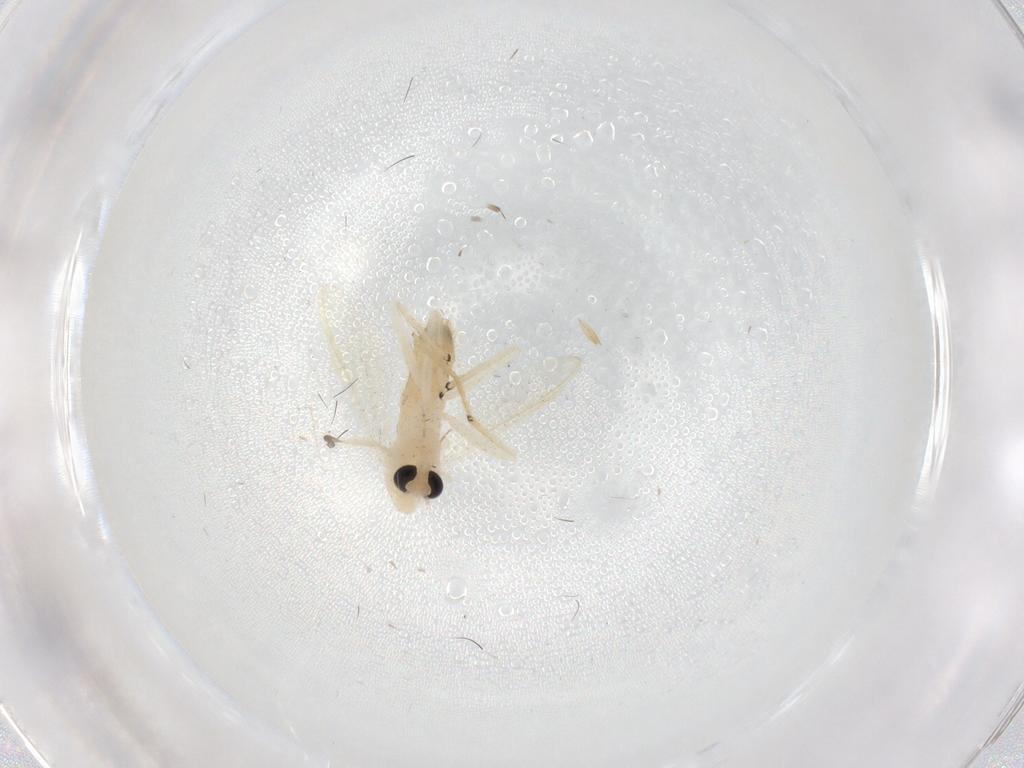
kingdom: Animalia
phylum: Arthropoda
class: Insecta
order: Diptera
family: Chironomidae
